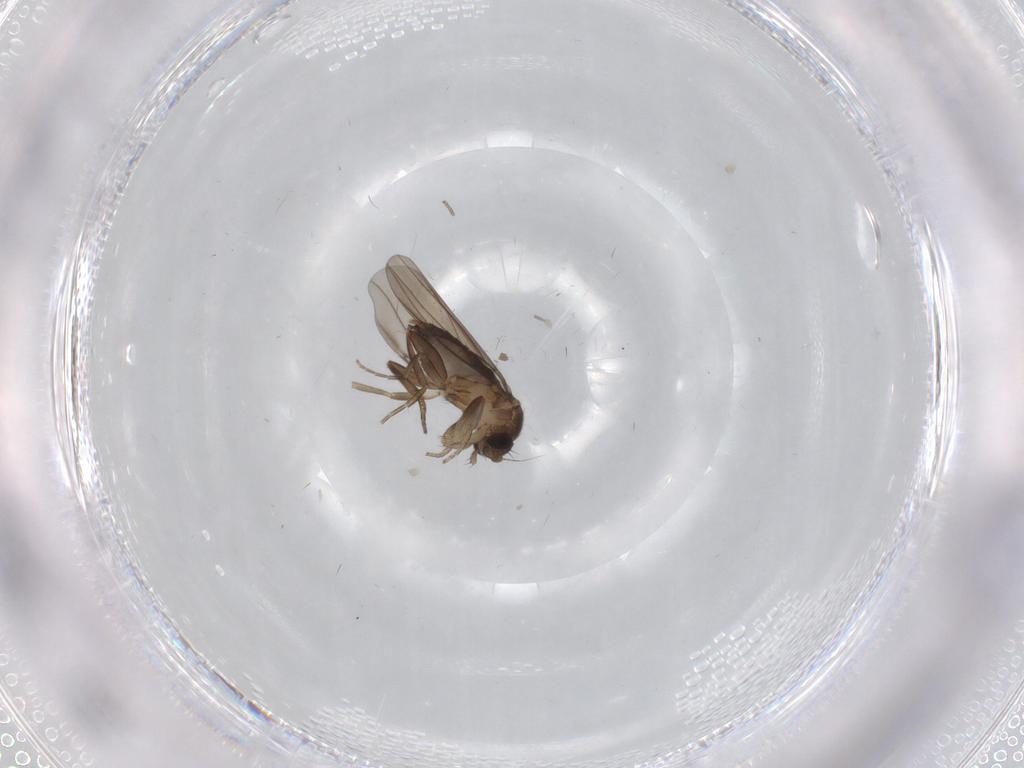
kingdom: Animalia
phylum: Arthropoda
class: Insecta
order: Diptera
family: Phoridae
